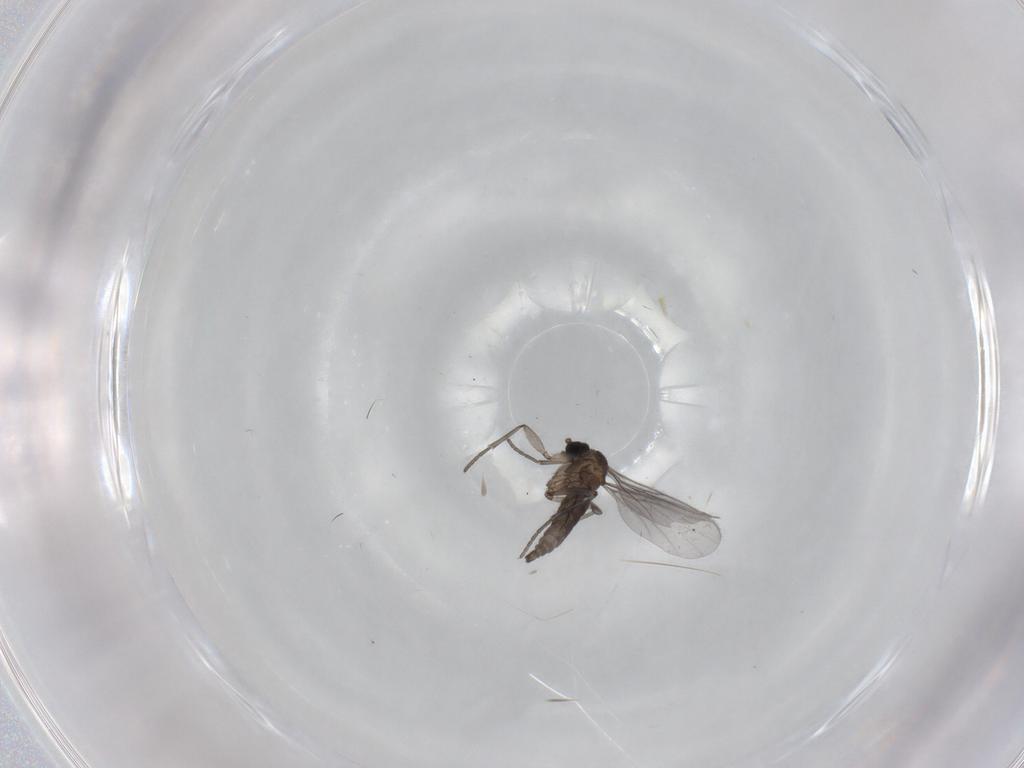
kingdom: Animalia
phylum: Arthropoda
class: Insecta
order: Diptera
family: Sciaridae
